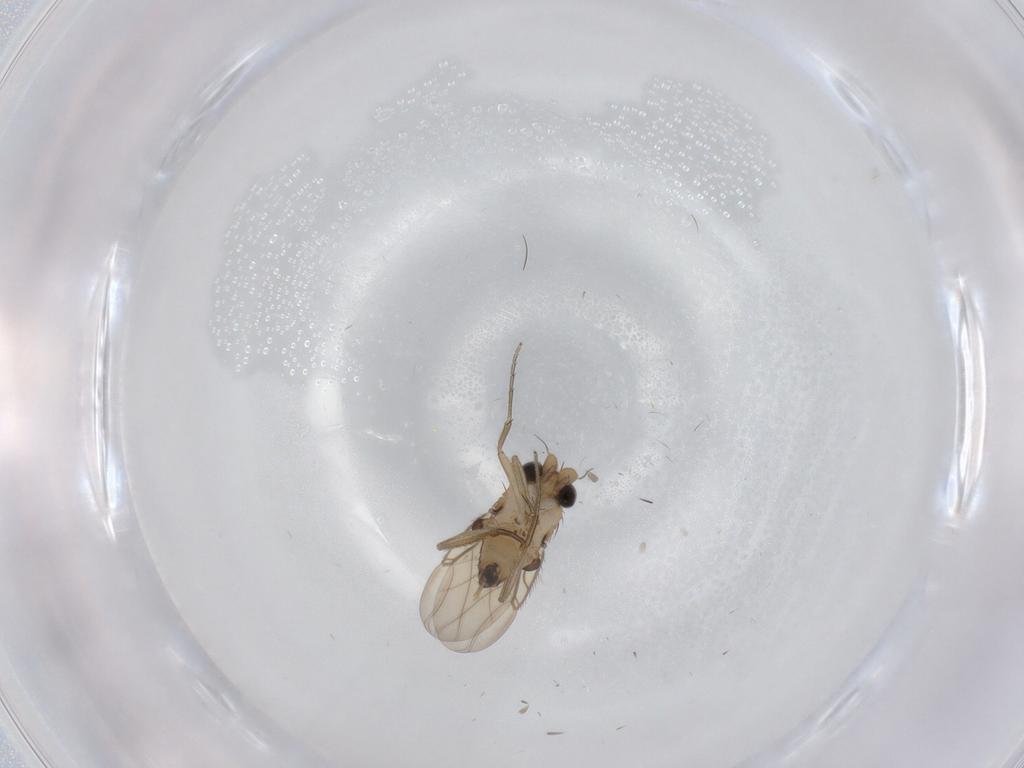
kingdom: Animalia
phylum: Arthropoda
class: Insecta
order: Diptera
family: Phoridae
